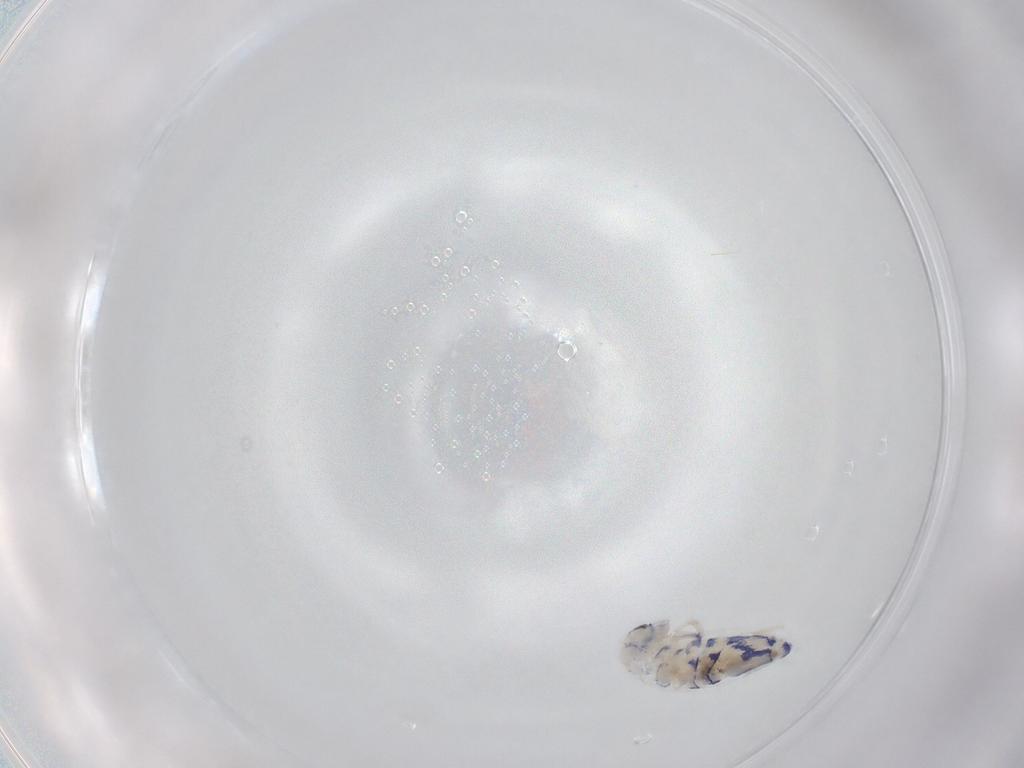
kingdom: Animalia
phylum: Arthropoda
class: Collembola
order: Entomobryomorpha
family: Entomobryidae
